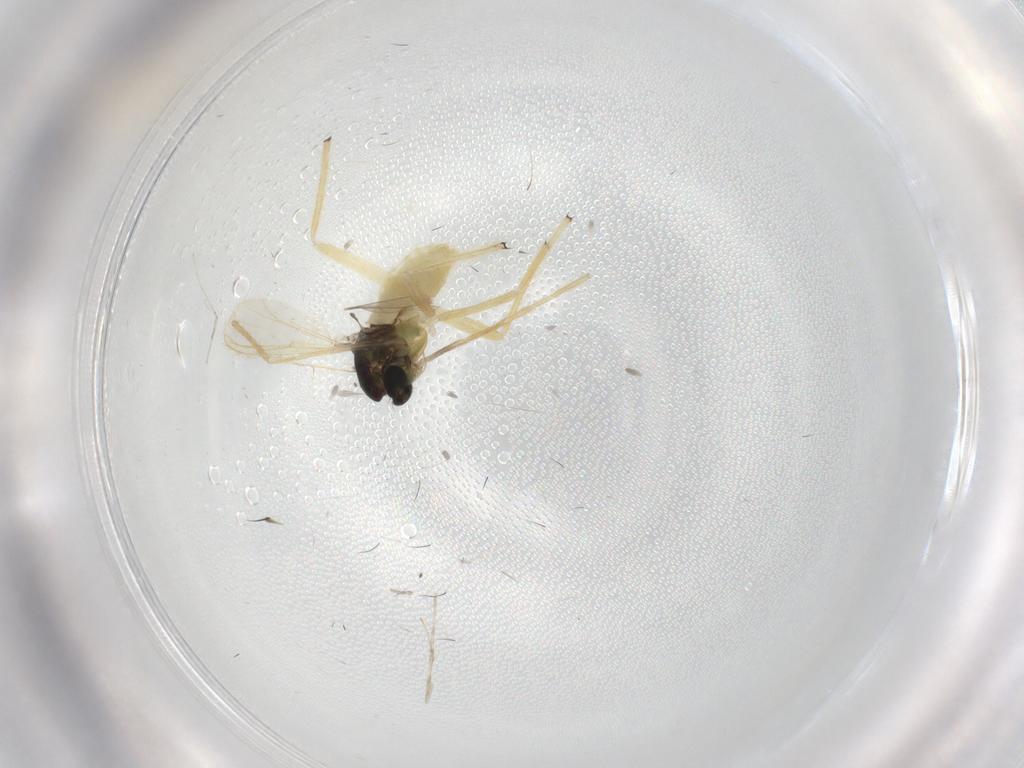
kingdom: Animalia
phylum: Arthropoda
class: Insecta
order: Diptera
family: Chironomidae
